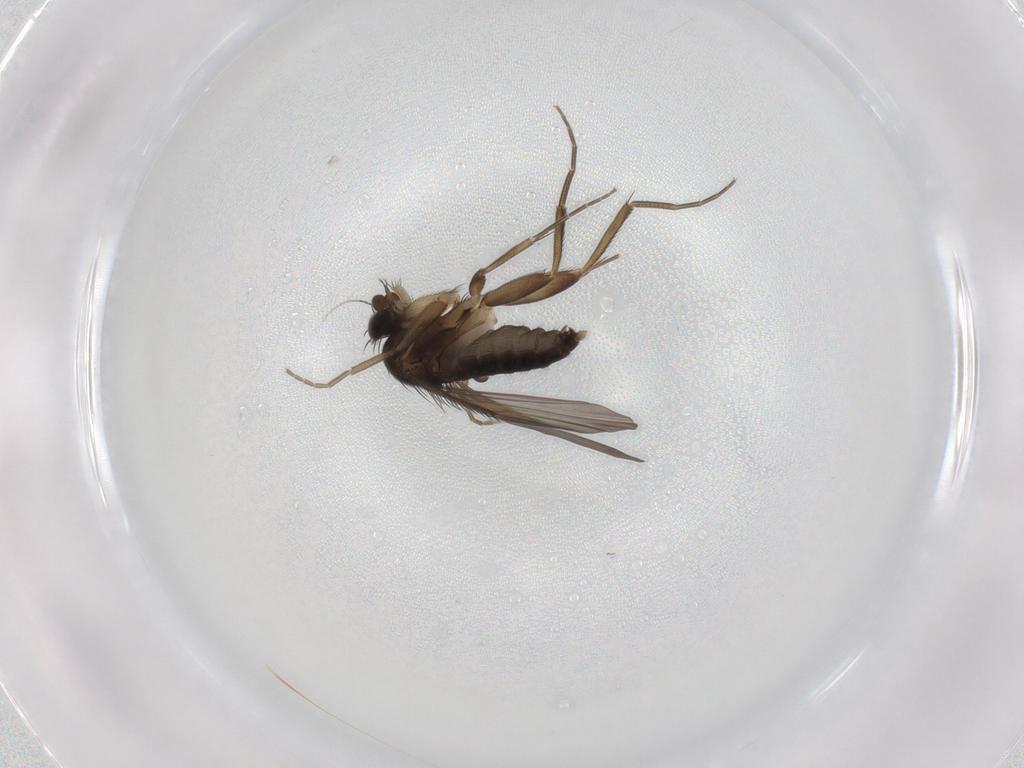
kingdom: Animalia
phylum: Arthropoda
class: Insecta
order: Diptera
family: Phoridae
